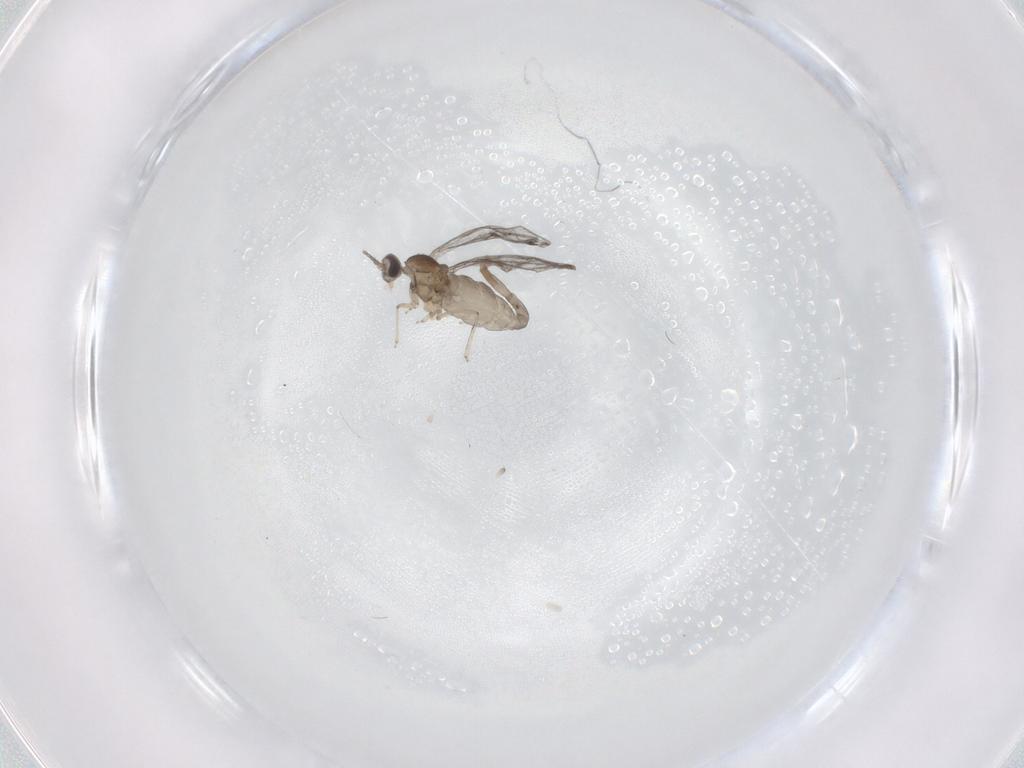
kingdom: Animalia
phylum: Arthropoda
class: Insecta
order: Diptera
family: Cecidomyiidae
